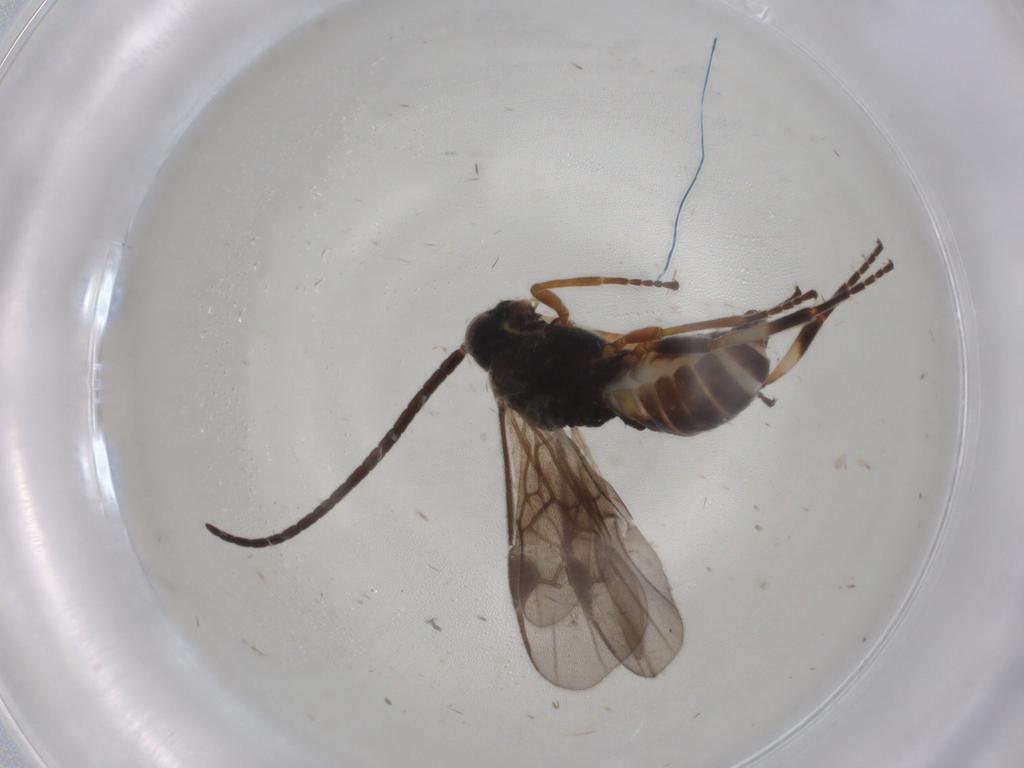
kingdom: Animalia
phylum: Arthropoda
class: Insecta
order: Hymenoptera
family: Braconidae
